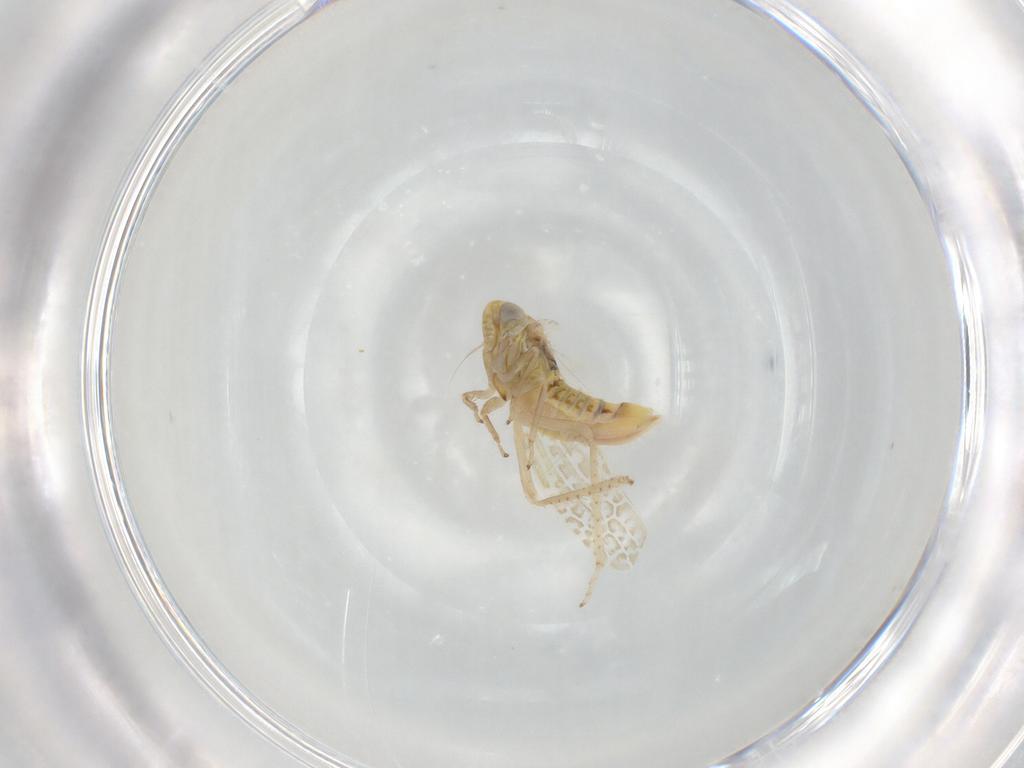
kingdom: Animalia
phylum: Arthropoda
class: Insecta
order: Hemiptera
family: Cicadellidae
